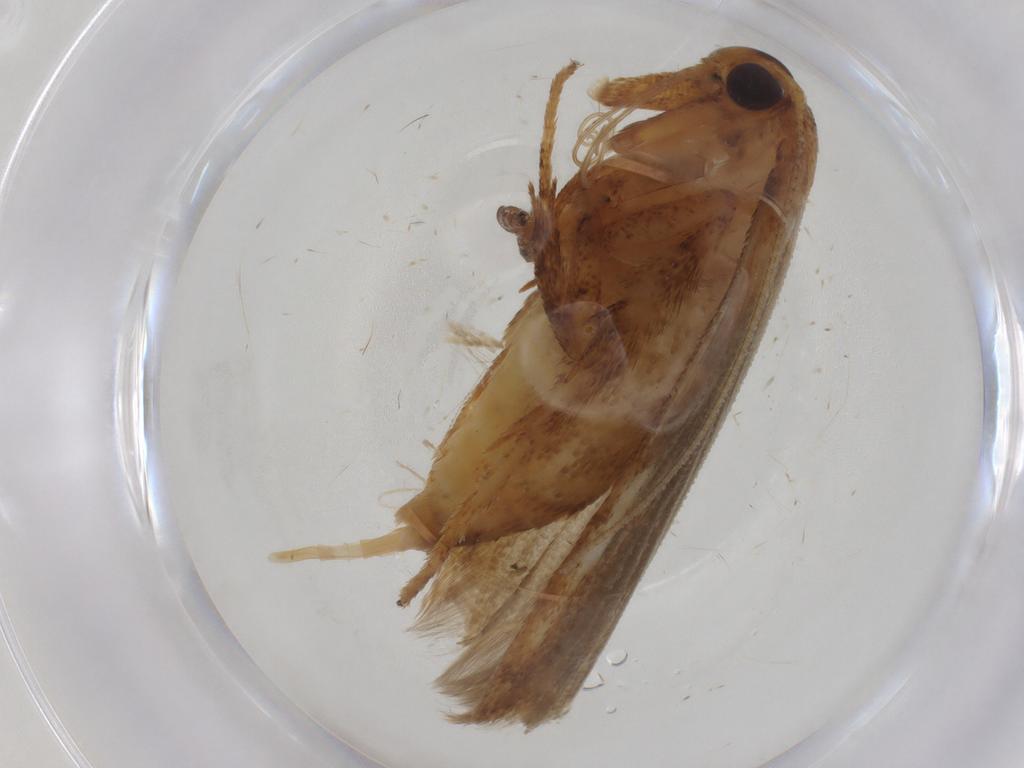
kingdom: Animalia
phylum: Arthropoda
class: Insecta
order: Lepidoptera
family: Blastobasidae
